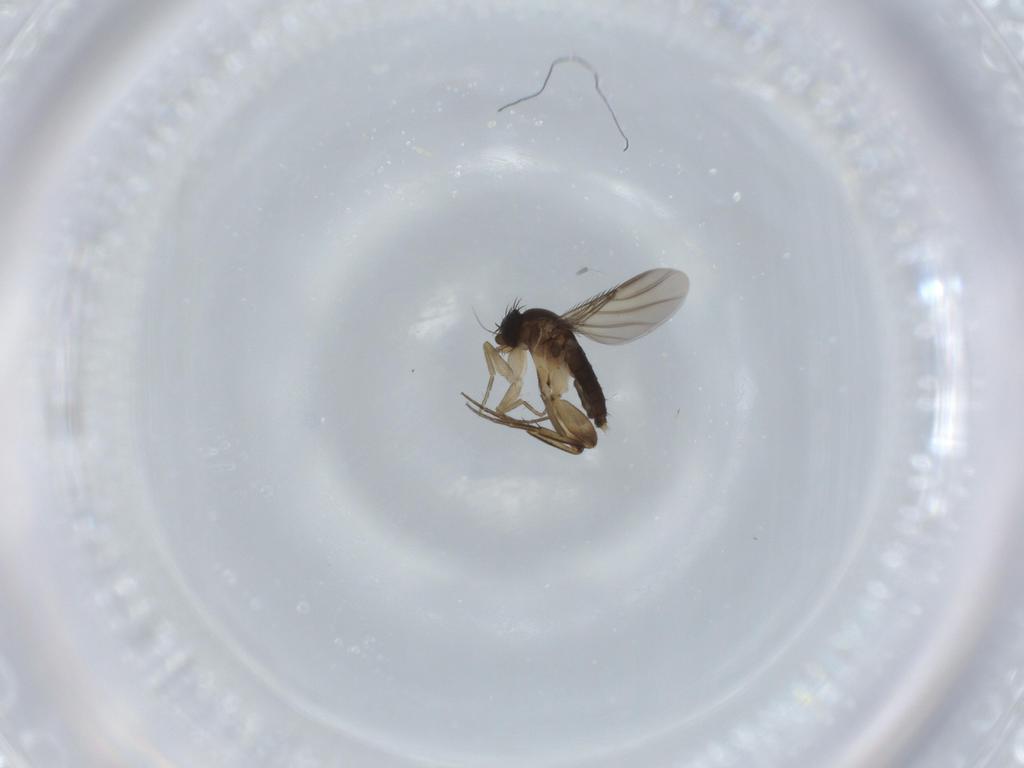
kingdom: Animalia
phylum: Arthropoda
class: Insecta
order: Diptera
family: Phoridae
